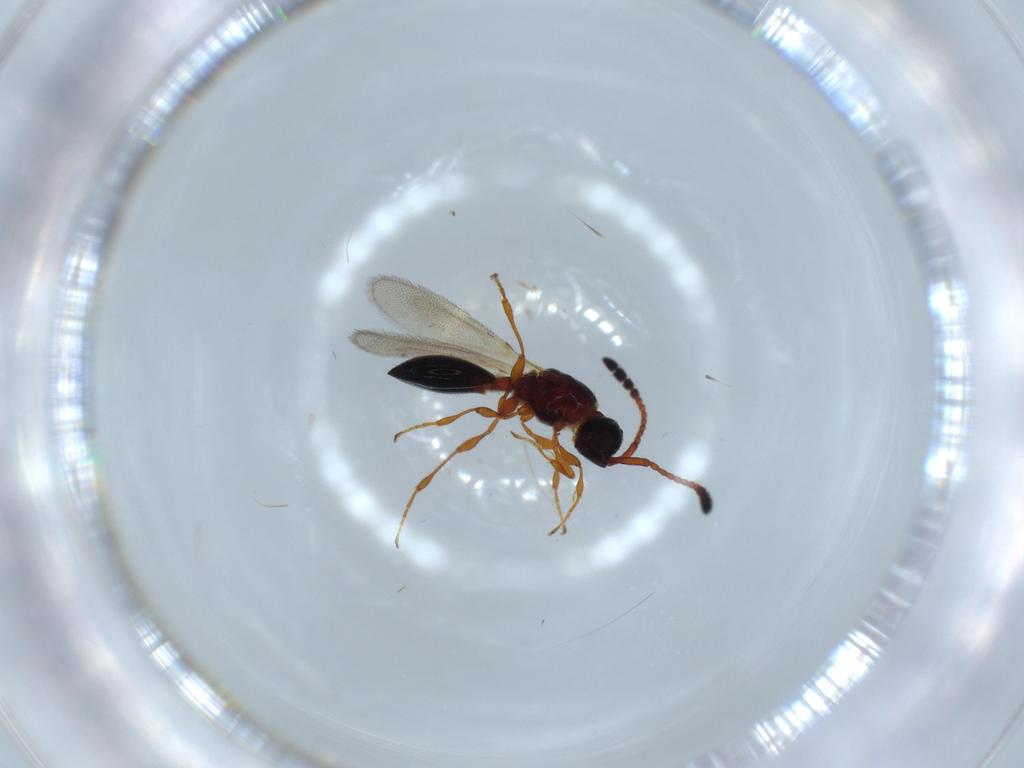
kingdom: Animalia
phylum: Arthropoda
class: Insecta
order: Hymenoptera
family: Diapriidae
